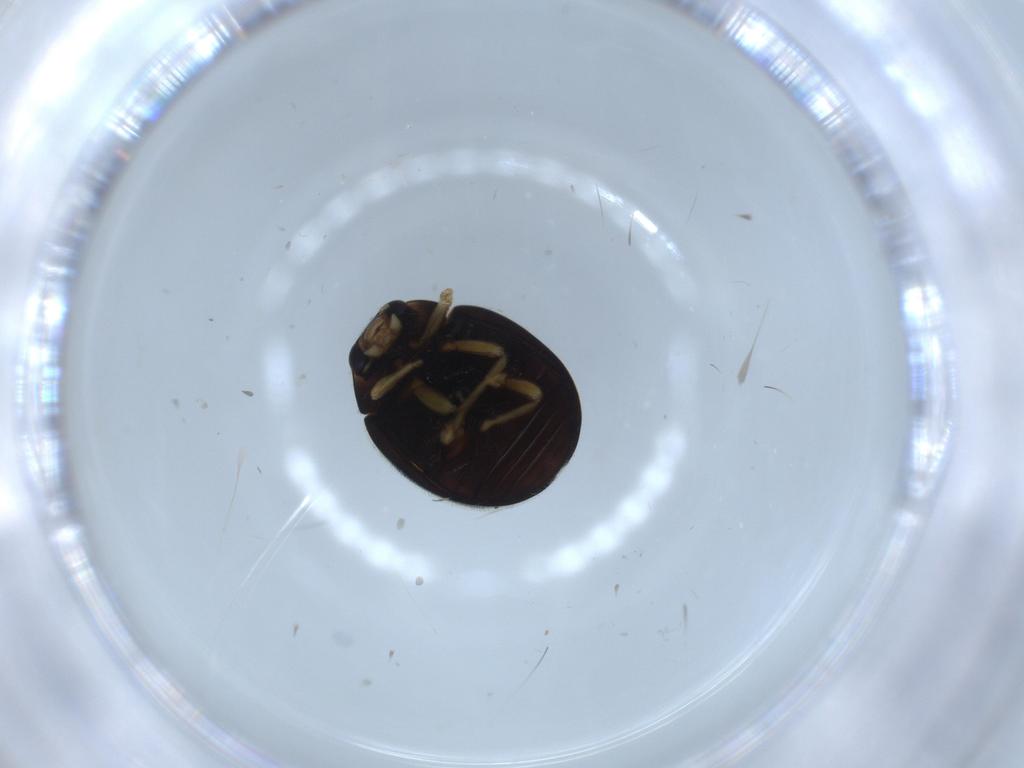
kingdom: Animalia
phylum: Arthropoda
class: Insecta
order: Coleoptera
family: Coccinellidae
